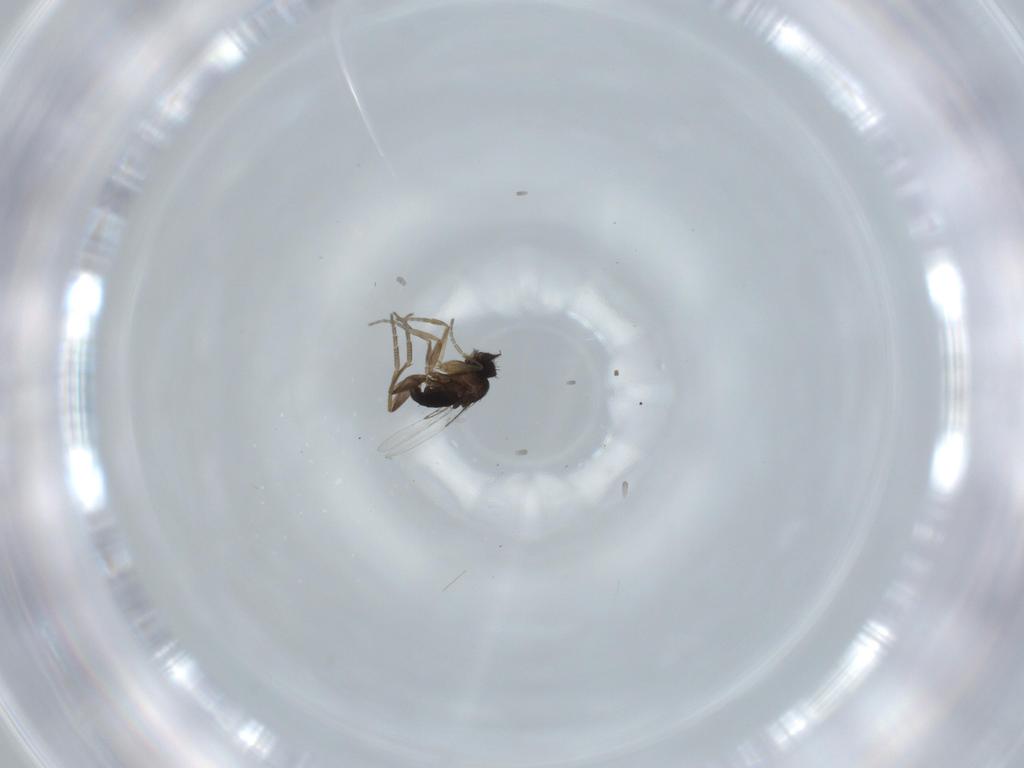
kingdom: Animalia
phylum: Arthropoda
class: Insecta
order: Diptera
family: Phoridae
